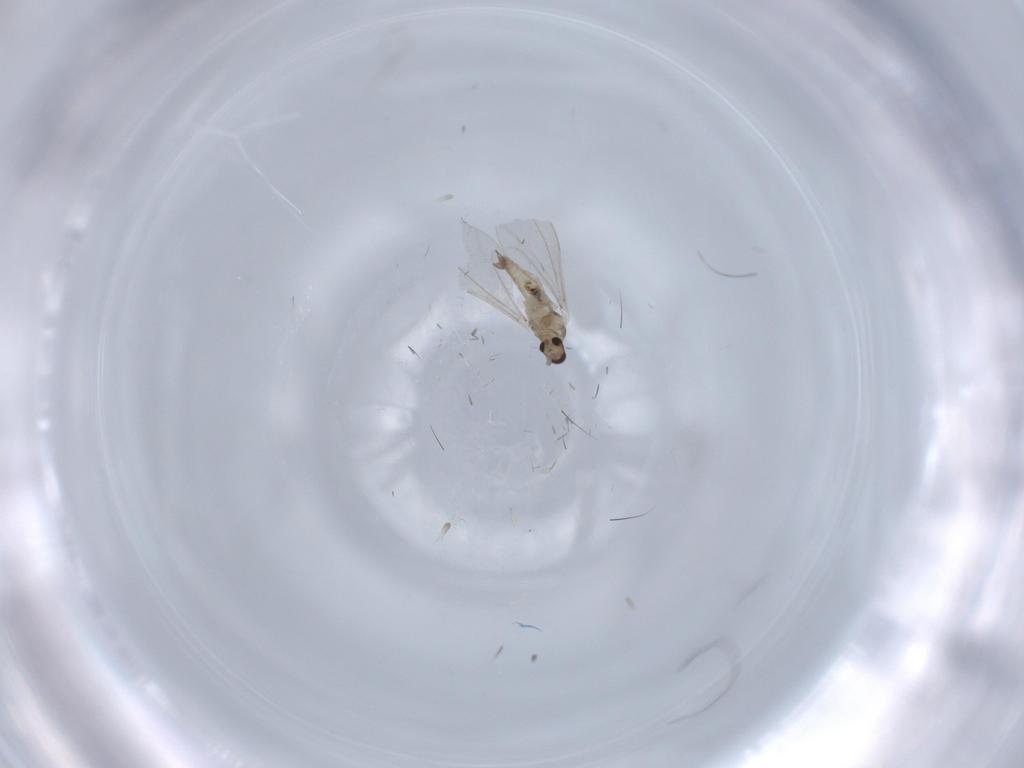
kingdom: Animalia
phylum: Arthropoda
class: Insecta
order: Diptera
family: Culicidae
